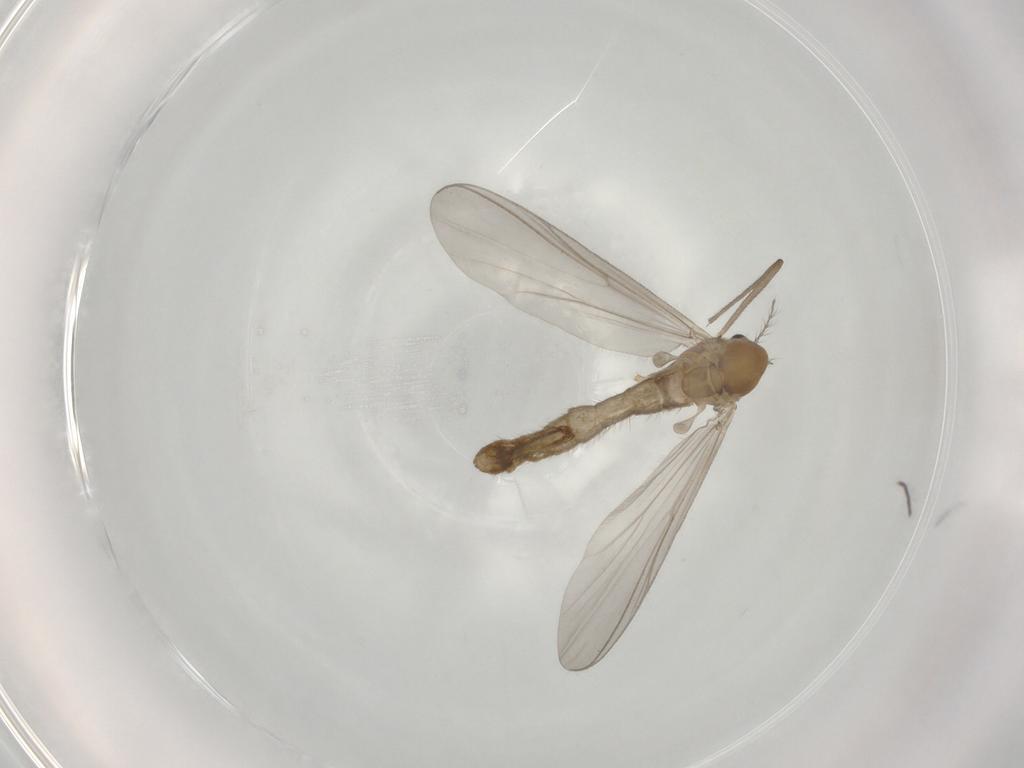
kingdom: Animalia
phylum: Arthropoda
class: Insecta
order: Diptera
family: Chironomidae
